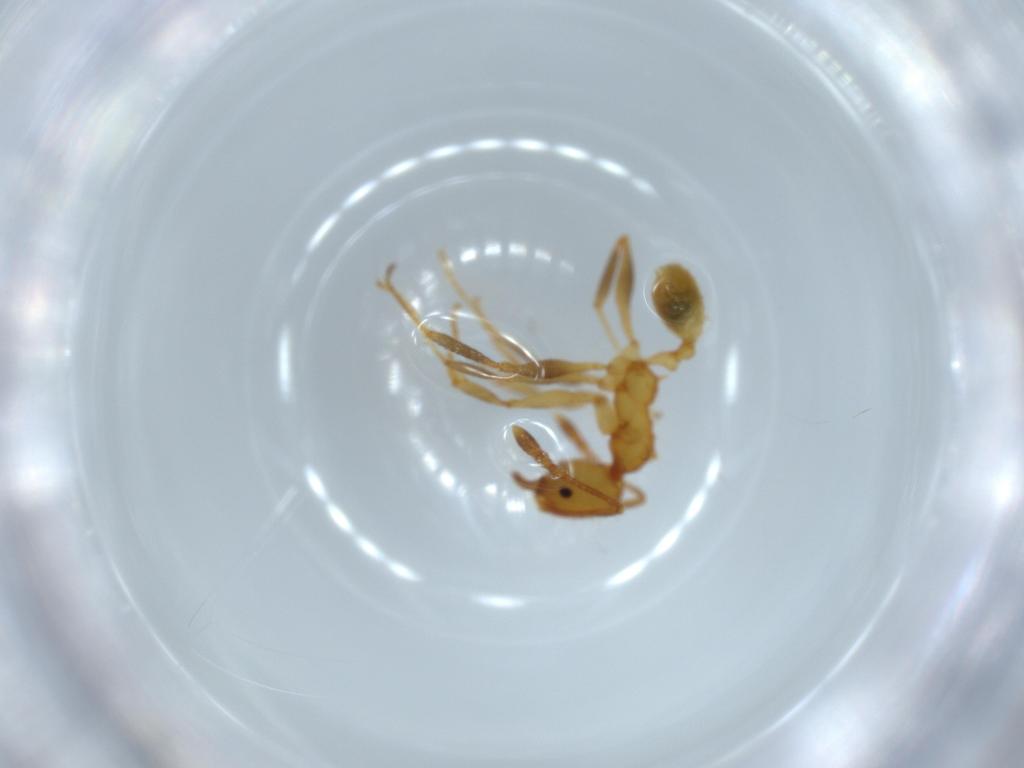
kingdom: Animalia
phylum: Arthropoda
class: Insecta
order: Hymenoptera
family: Formicidae
